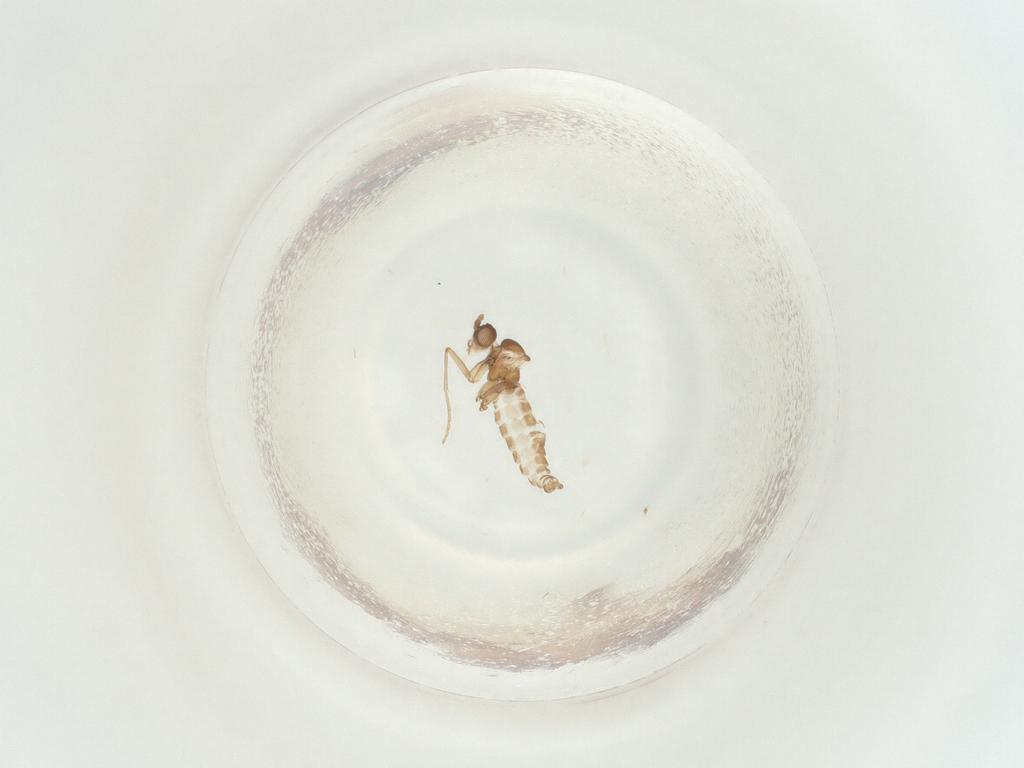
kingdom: Animalia
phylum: Arthropoda
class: Insecta
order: Diptera
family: Sciaridae
